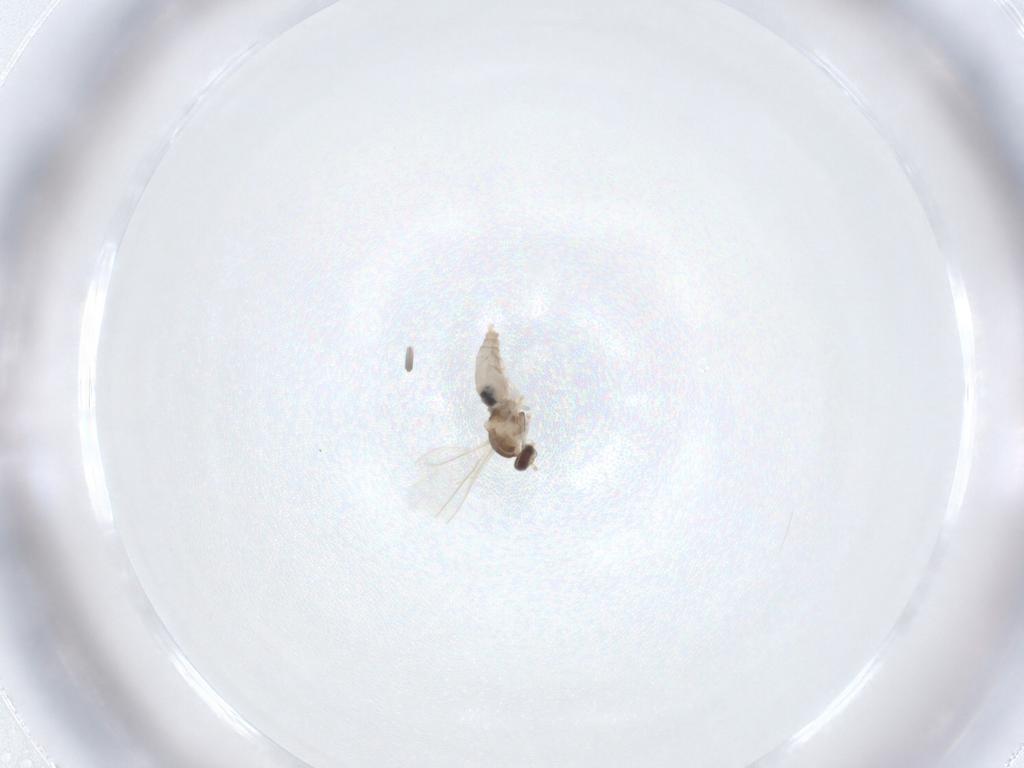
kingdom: Animalia
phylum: Arthropoda
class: Insecta
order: Diptera
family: Cecidomyiidae
